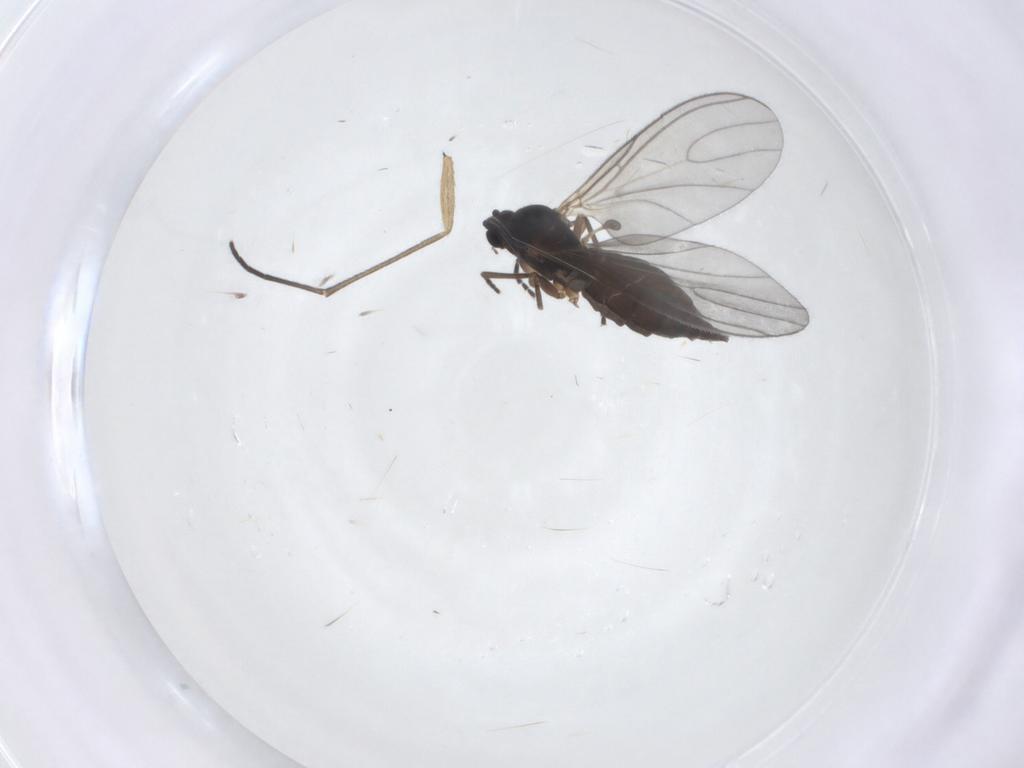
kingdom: Animalia
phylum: Arthropoda
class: Insecta
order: Diptera
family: Sciaridae
